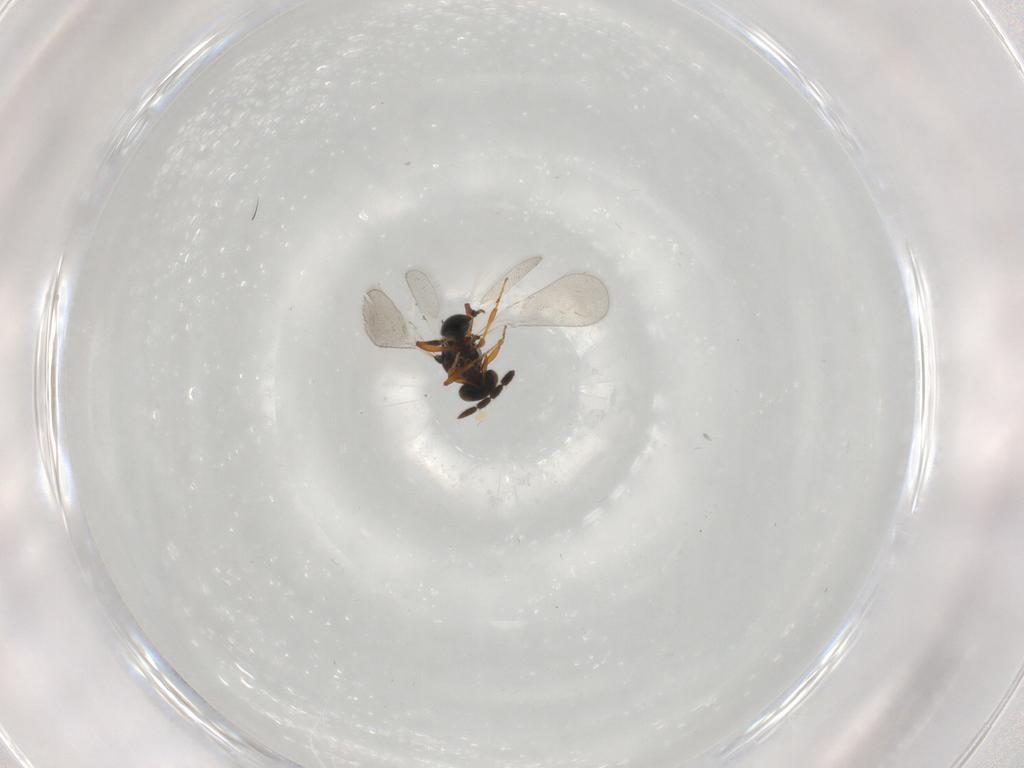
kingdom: Animalia
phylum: Arthropoda
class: Insecta
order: Hymenoptera
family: Scelionidae
